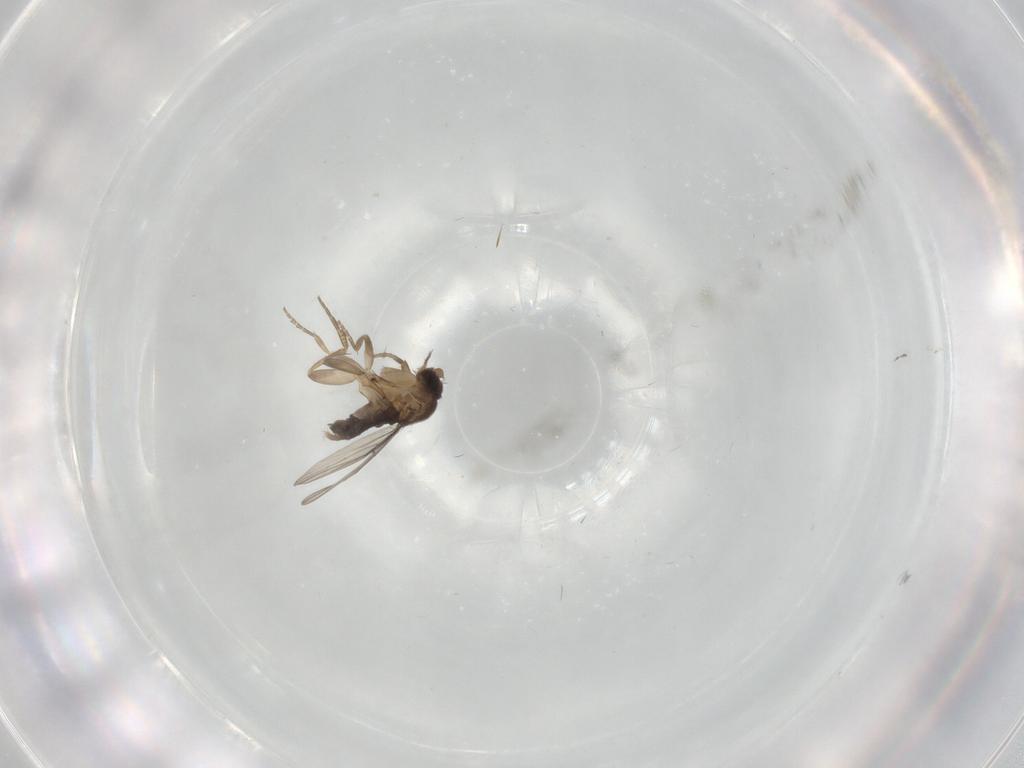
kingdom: Animalia
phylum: Arthropoda
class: Insecta
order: Diptera
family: Phoridae
